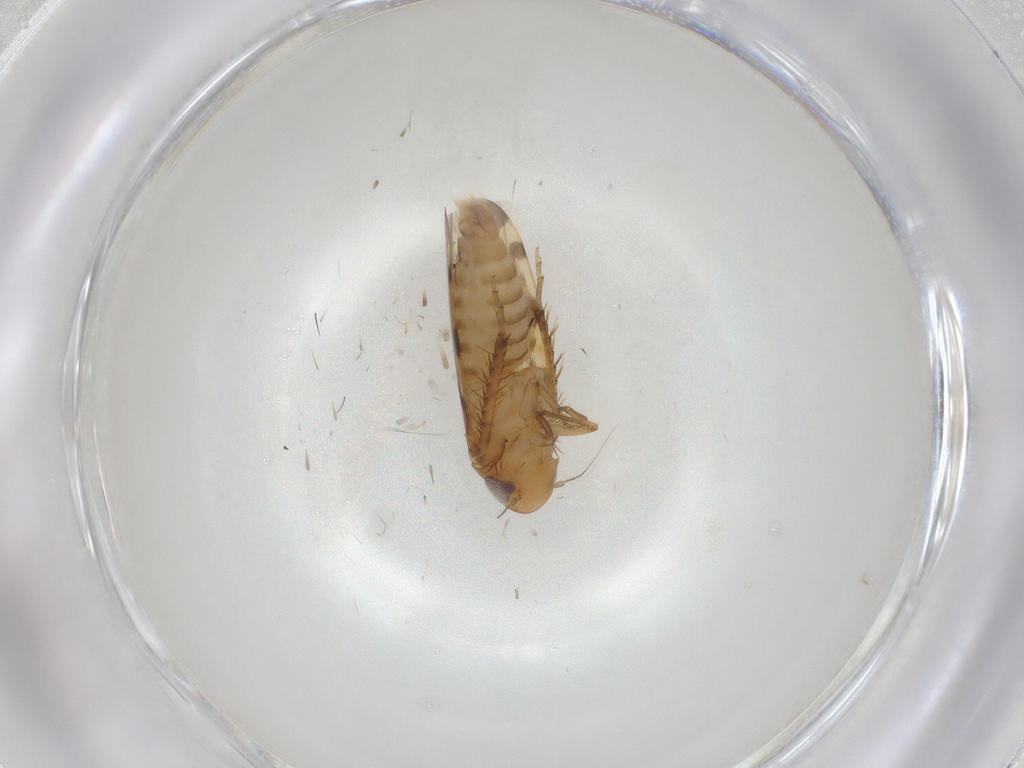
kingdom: Animalia
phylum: Arthropoda
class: Insecta
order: Hemiptera
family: Cicadellidae
